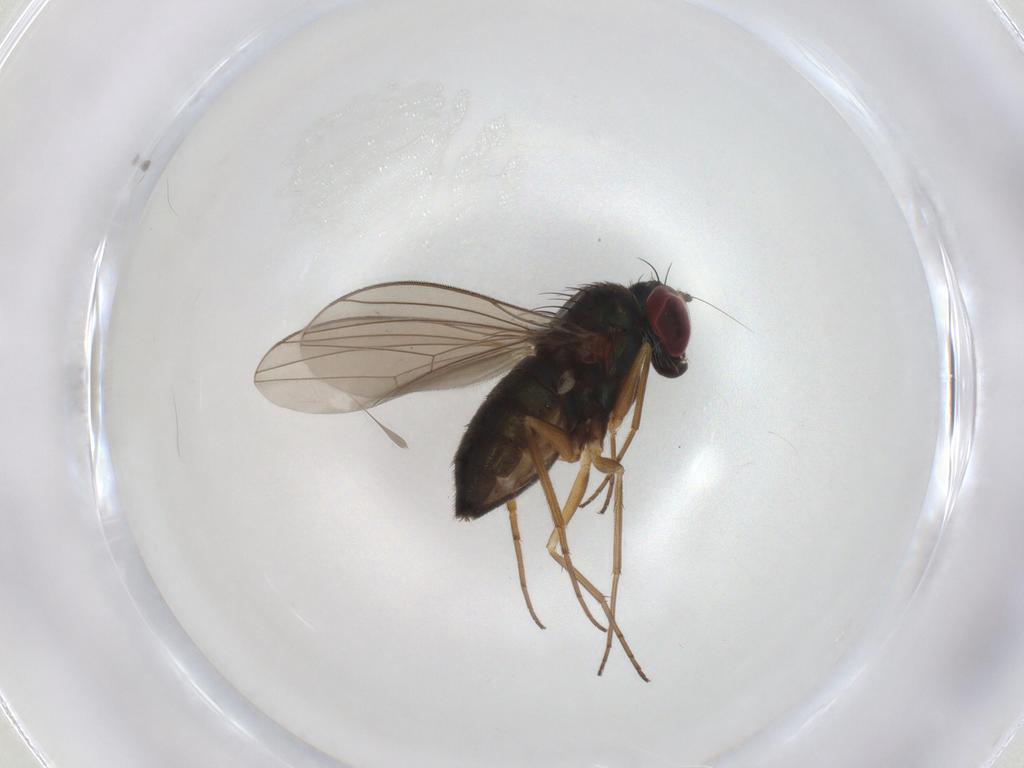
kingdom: Animalia
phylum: Arthropoda
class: Insecta
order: Diptera
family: Dolichopodidae
